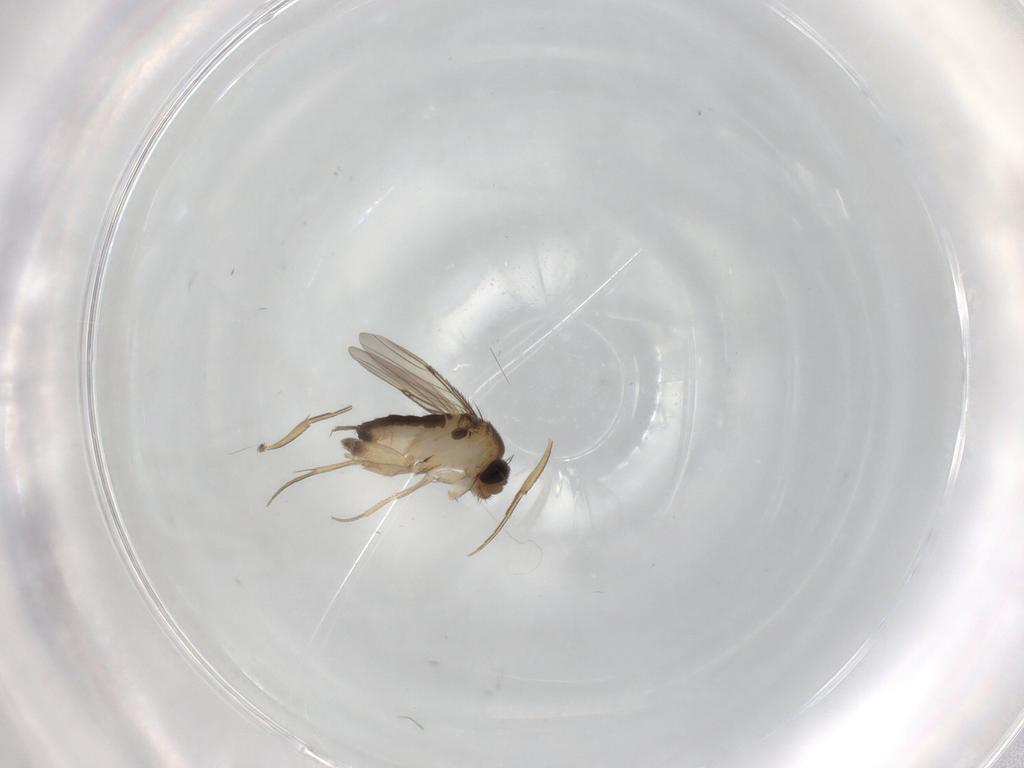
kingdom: Animalia
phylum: Arthropoda
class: Insecta
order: Diptera
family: Phoridae
